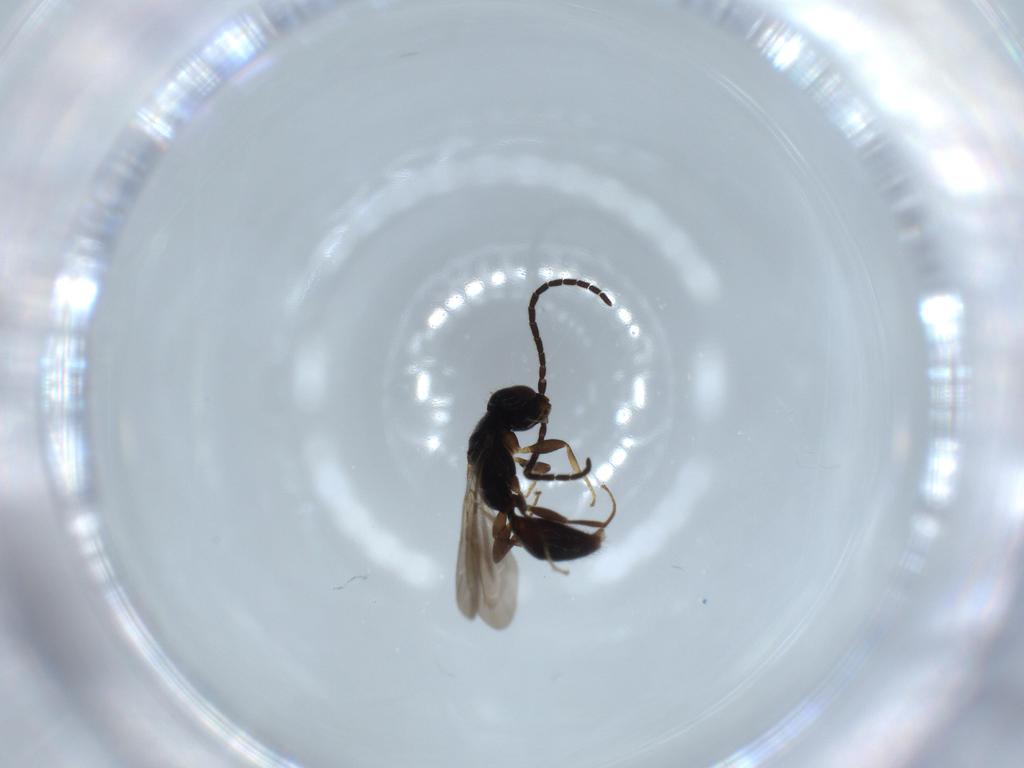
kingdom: Animalia
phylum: Arthropoda
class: Insecta
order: Hymenoptera
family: Bethylidae
